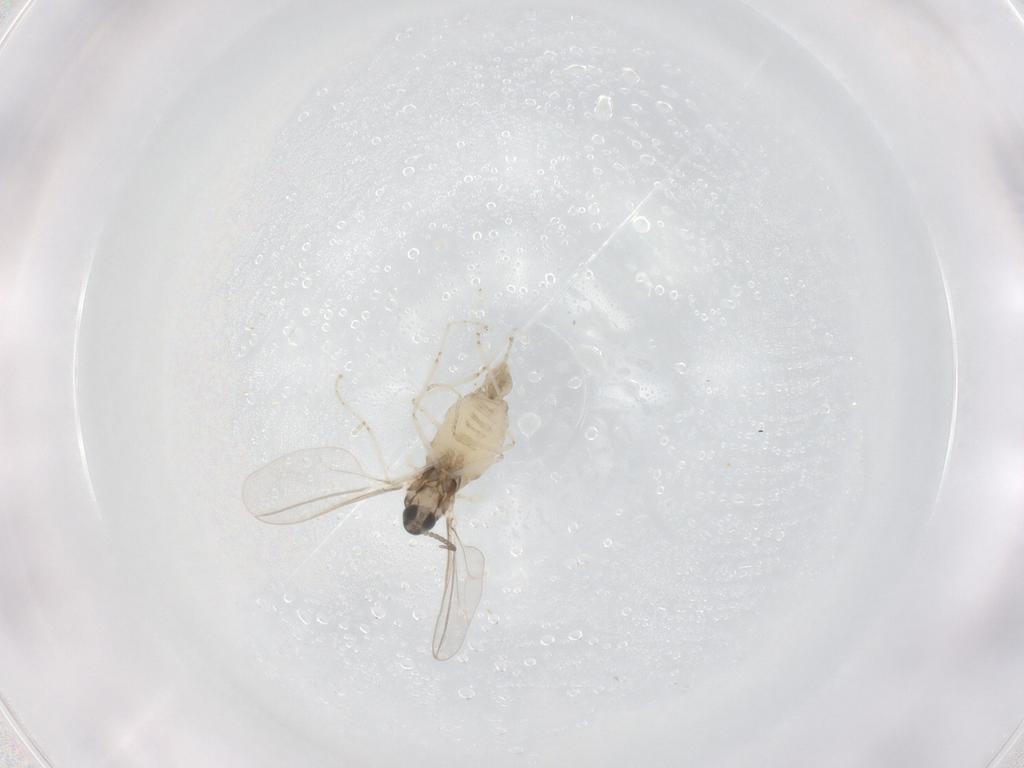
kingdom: Animalia
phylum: Arthropoda
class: Insecta
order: Diptera
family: Cecidomyiidae
